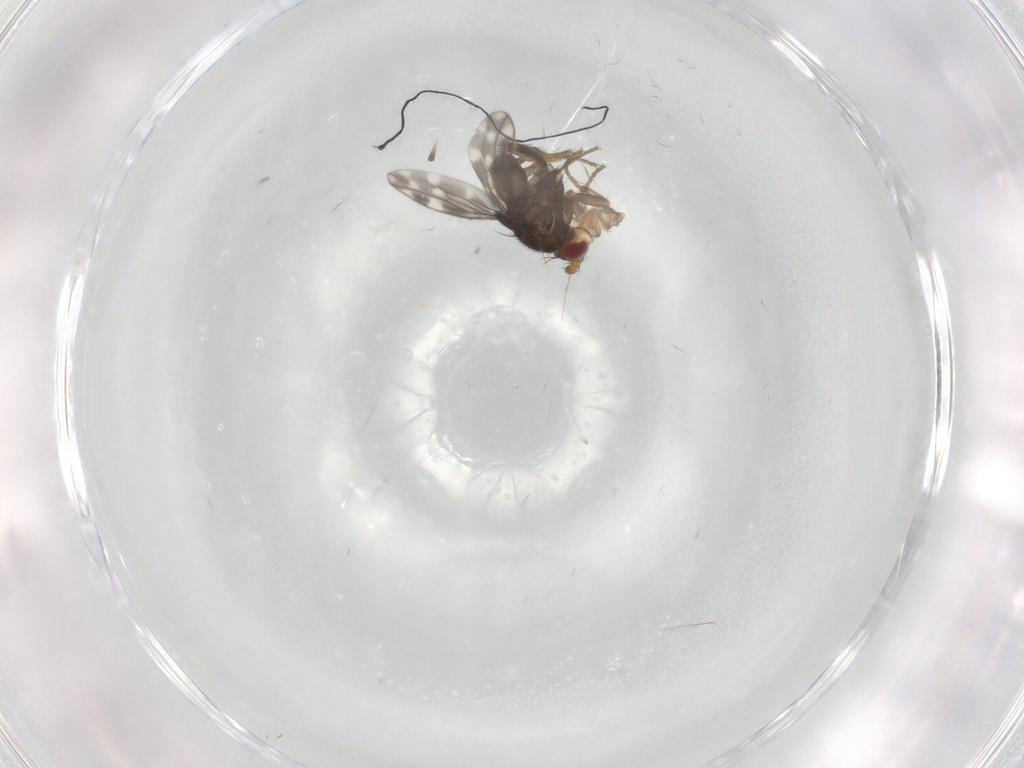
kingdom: Animalia
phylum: Arthropoda
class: Insecta
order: Diptera
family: Sphaeroceridae
